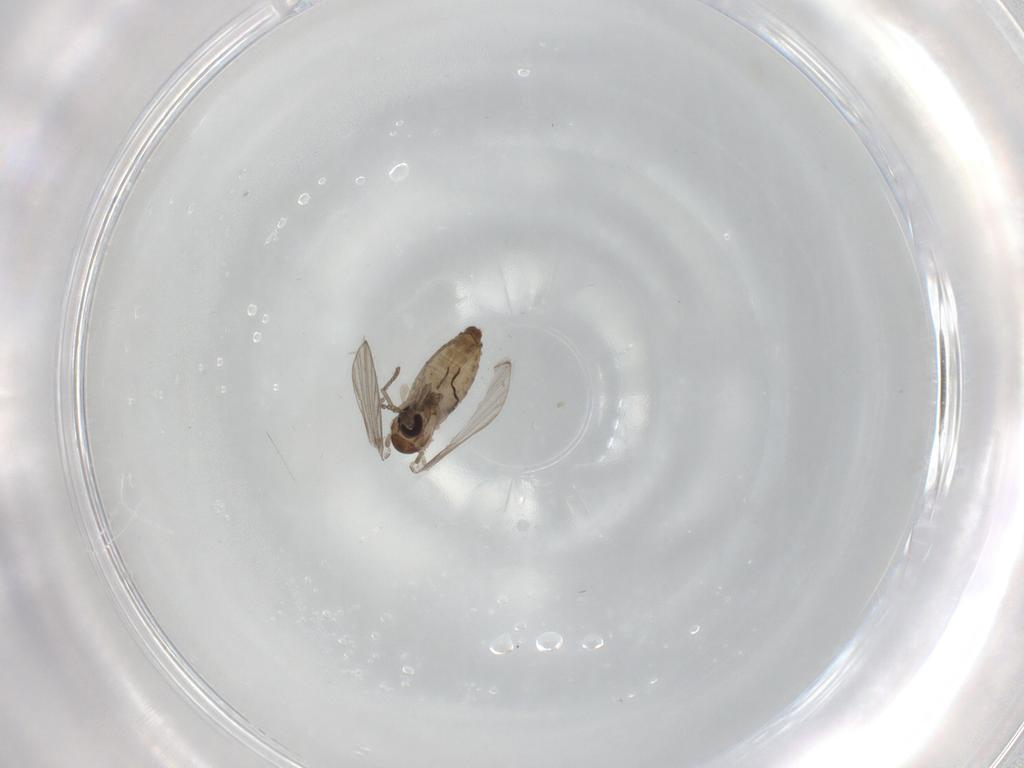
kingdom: Animalia
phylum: Arthropoda
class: Insecta
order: Diptera
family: Psychodidae
